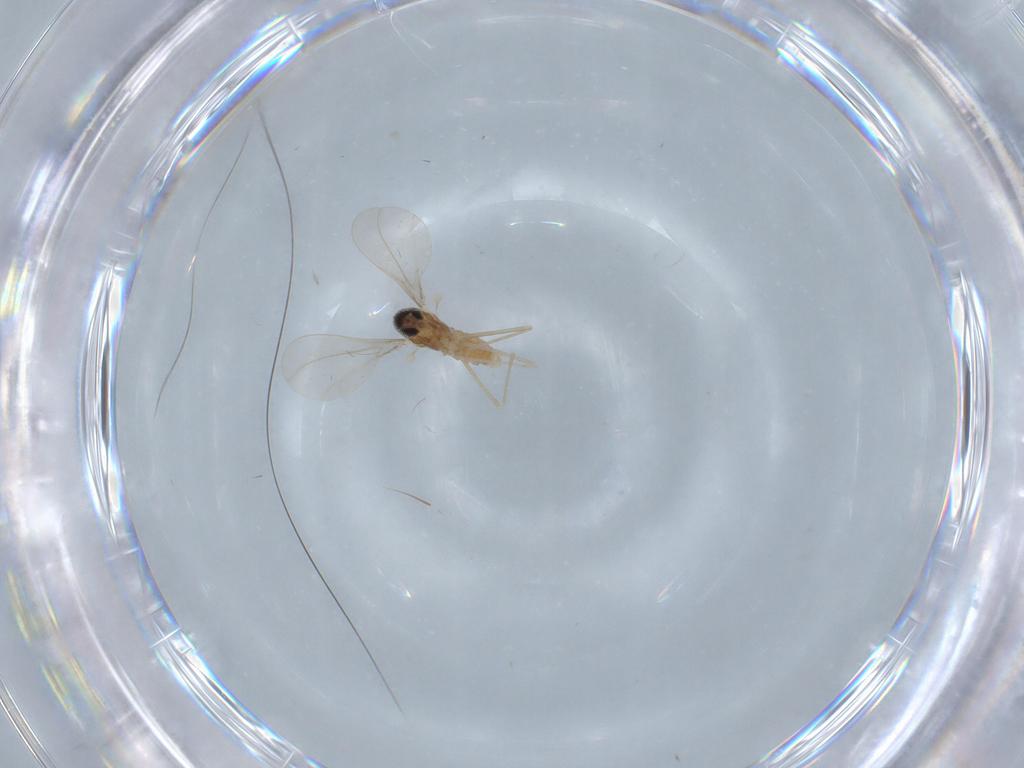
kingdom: Animalia
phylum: Arthropoda
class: Insecta
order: Diptera
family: Cecidomyiidae
